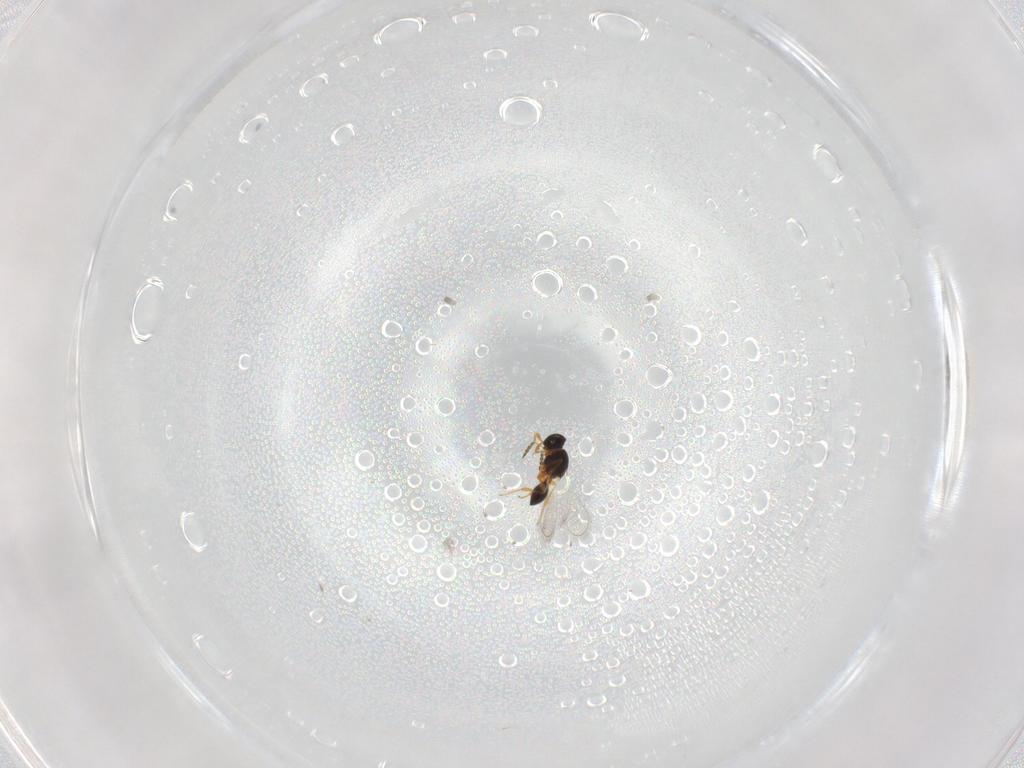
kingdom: Animalia
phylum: Arthropoda
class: Insecta
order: Hymenoptera
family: Platygastridae
